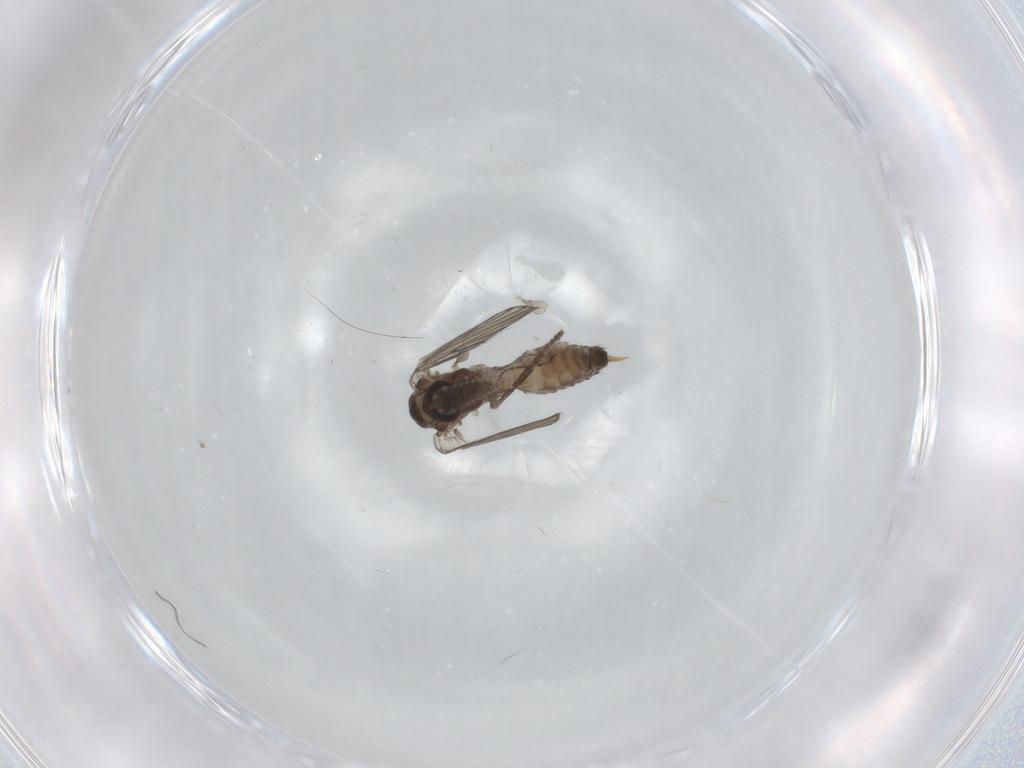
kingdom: Animalia
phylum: Arthropoda
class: Insecta
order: Diptera
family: Psychodidae
